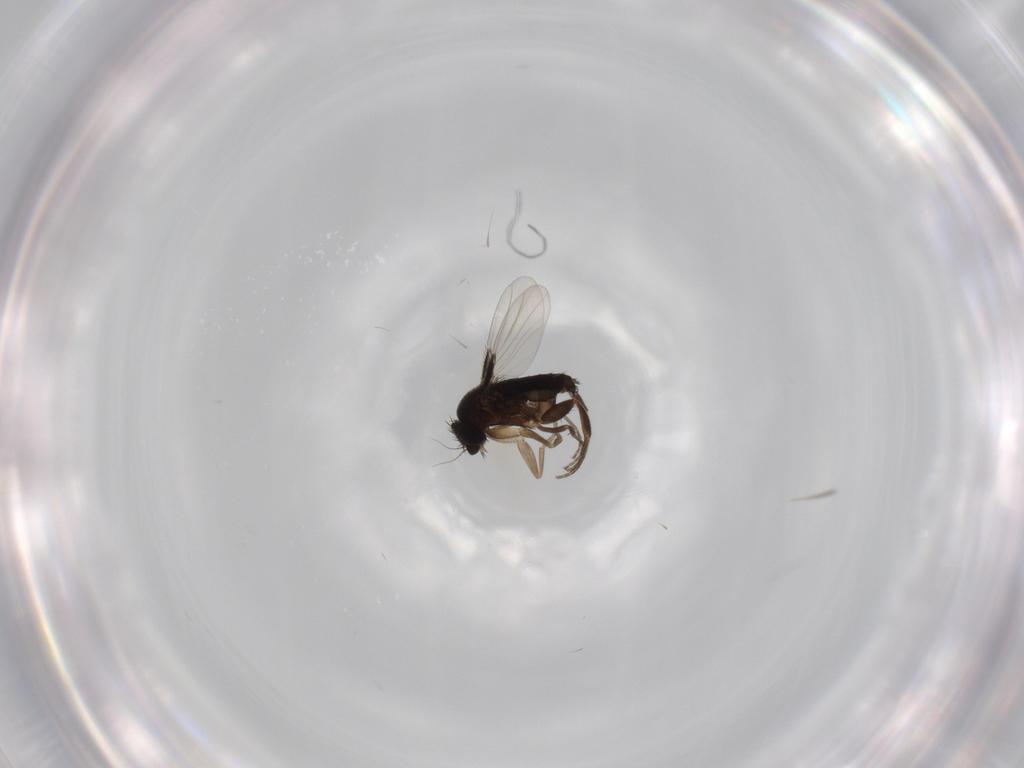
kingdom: Animalia
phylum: Arthropoda
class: Insecta
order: Diptera
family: Phoridae
